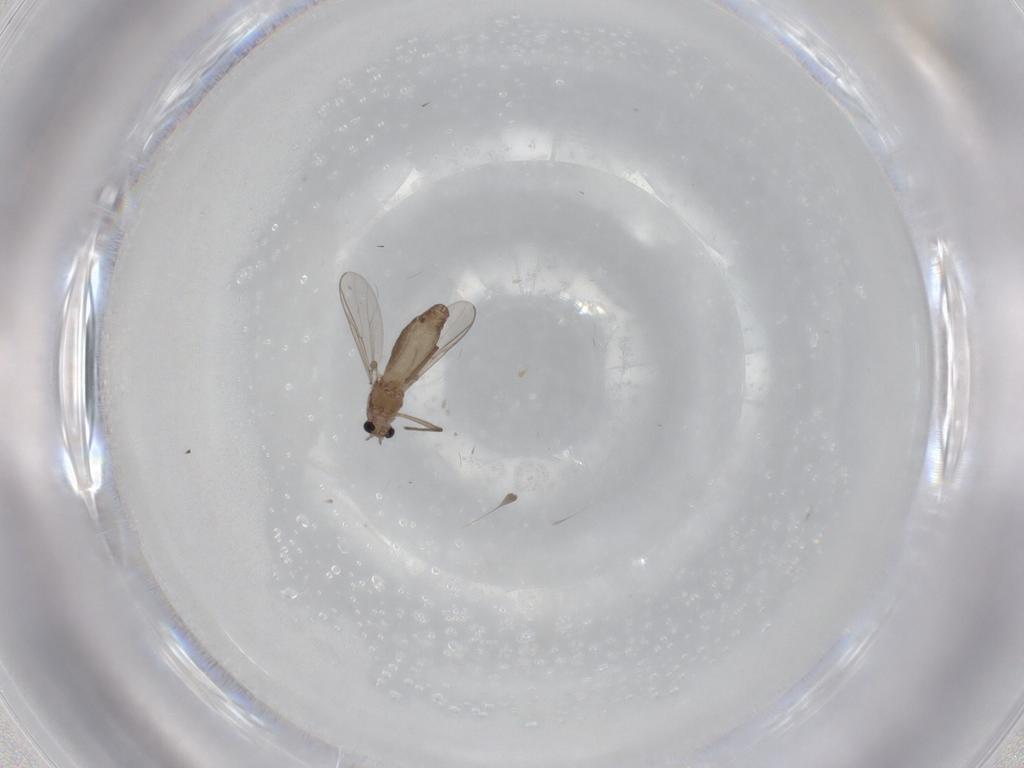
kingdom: Animalia
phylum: Arthropoda
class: Insecta
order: Diptera
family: Chironomidae
